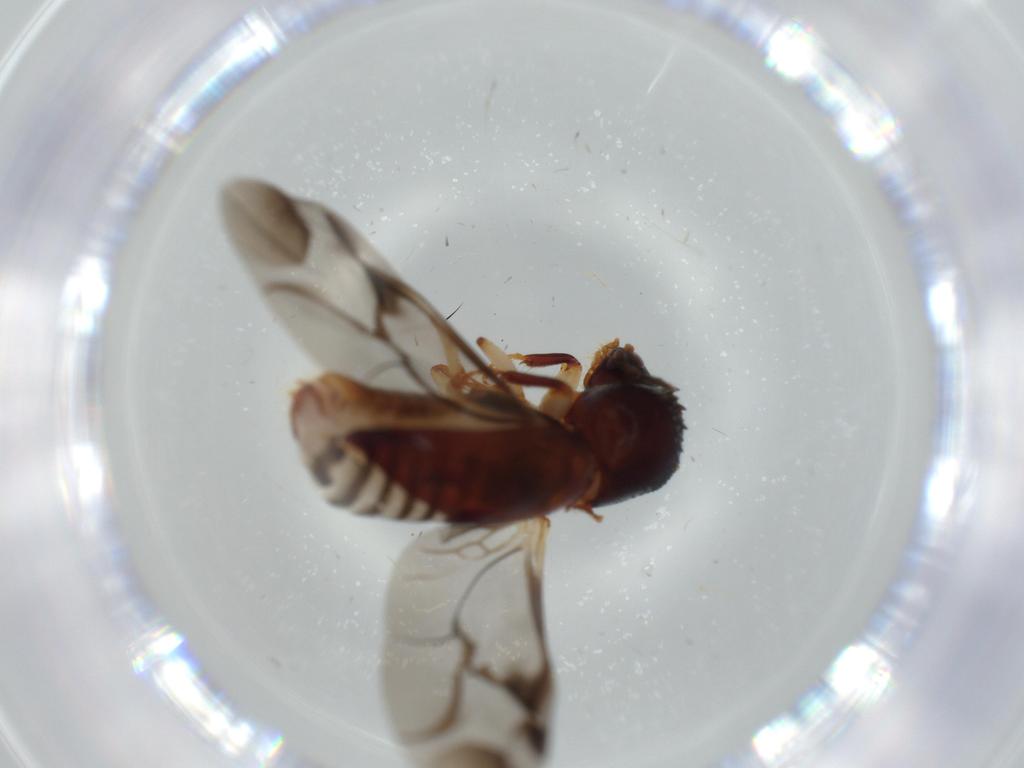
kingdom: Animalia
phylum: Arthropoda
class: Insecta
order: Coleoptera
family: Bostrichidae
